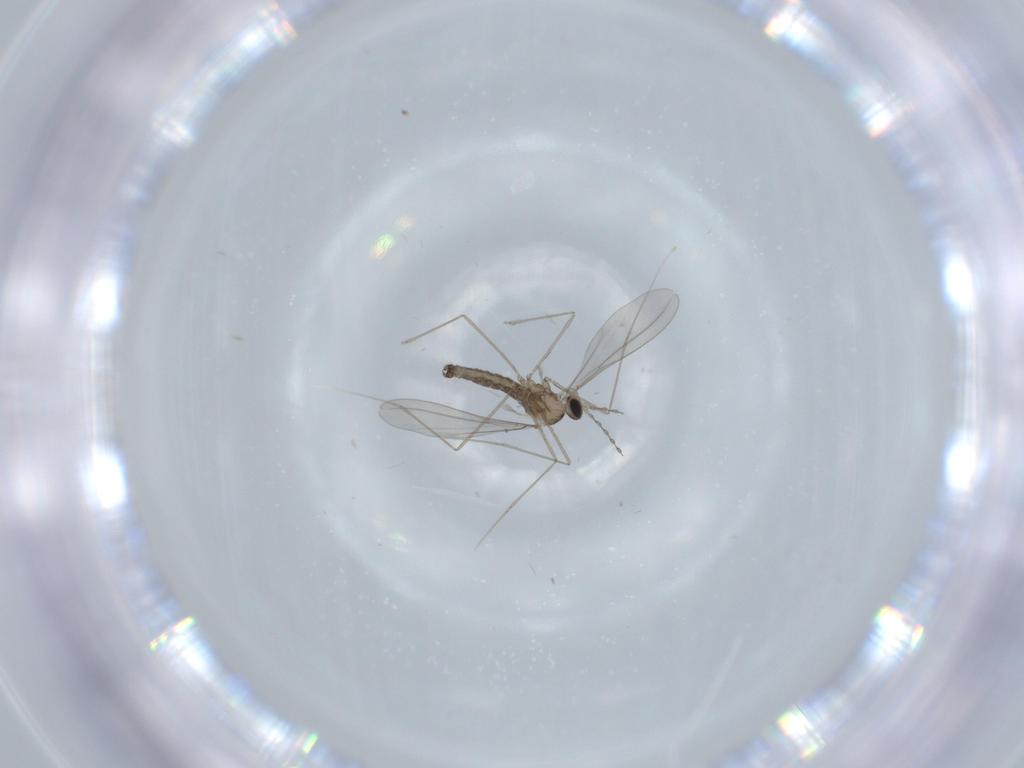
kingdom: Animalia
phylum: Arthropoda
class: Insecta
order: Diptera
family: Cecidomyiidae
